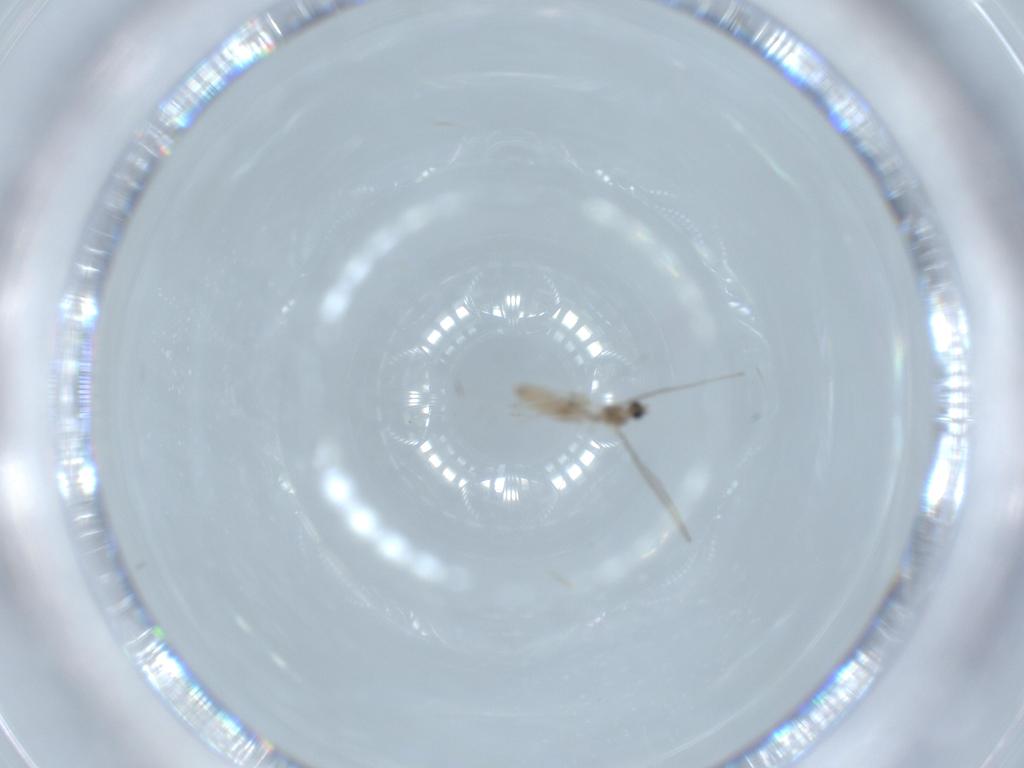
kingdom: Animalia
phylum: Arthropoda
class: Insecta
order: Diptera
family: Cecidomyiidae
